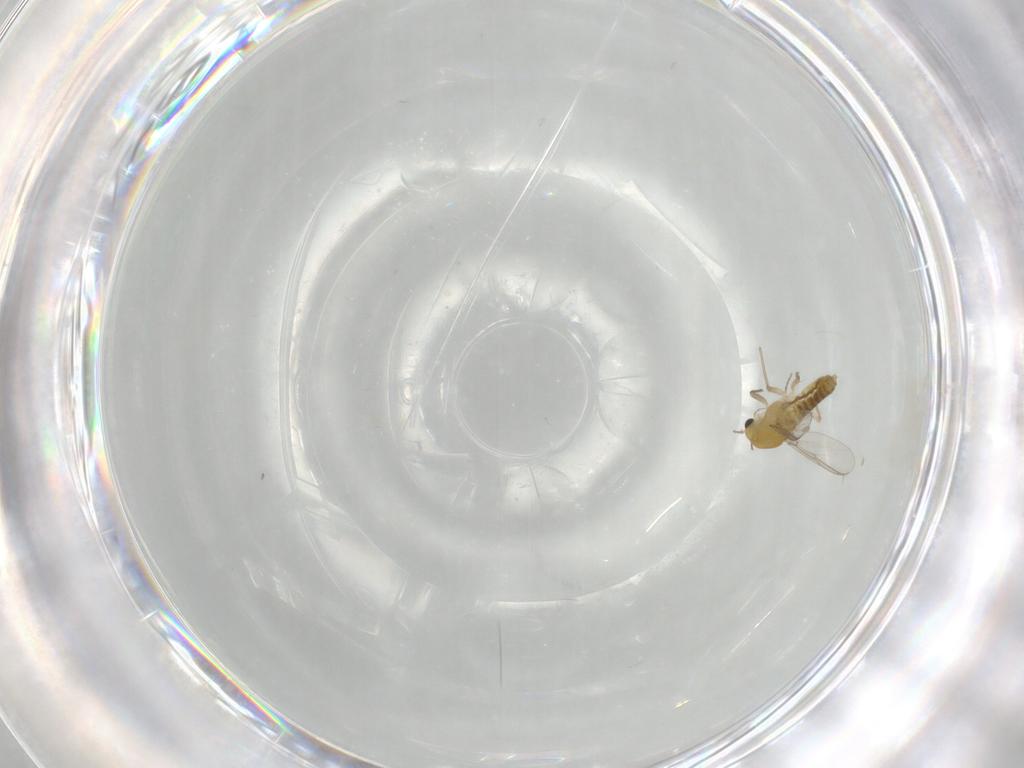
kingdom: Animalia
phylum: Arthropoda
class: Insecta
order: Diptera
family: Chironomidae
